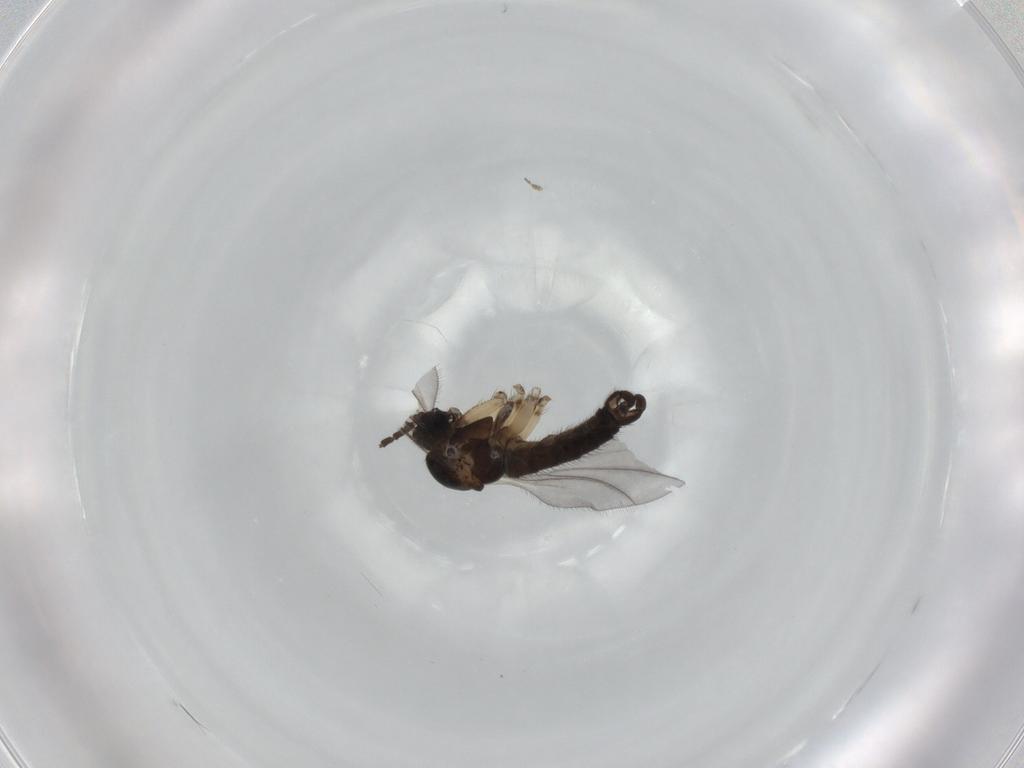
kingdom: Animalia
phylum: Arthropoda
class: Insecta
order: Diptera
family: Sciaridae
